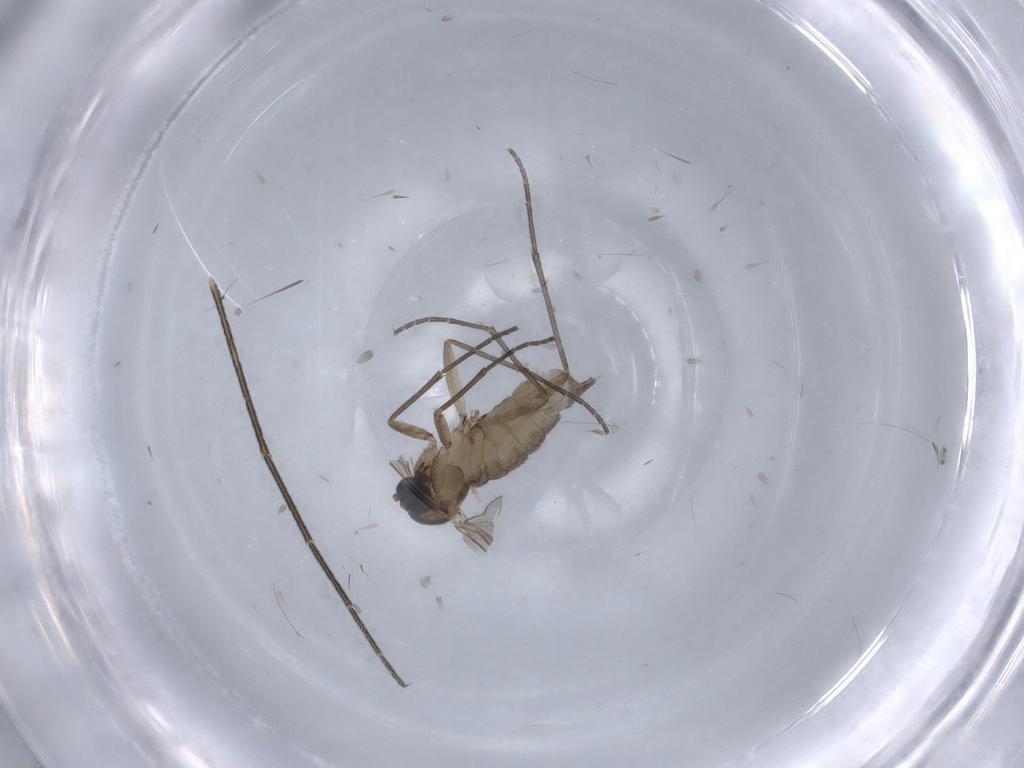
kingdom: Animalia
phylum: Arthropoda
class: Insecta
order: Diptera
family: Sciaridae
